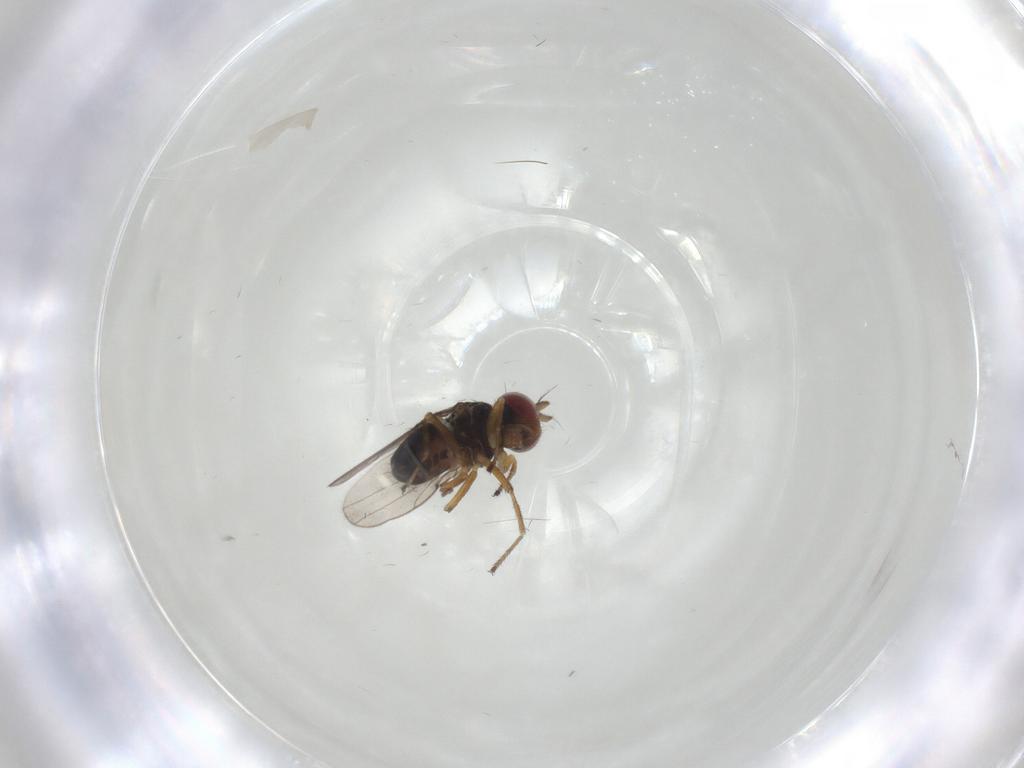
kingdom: Animalia
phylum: Arthropoda
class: Insecta
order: Diptera
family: Ephydridae
